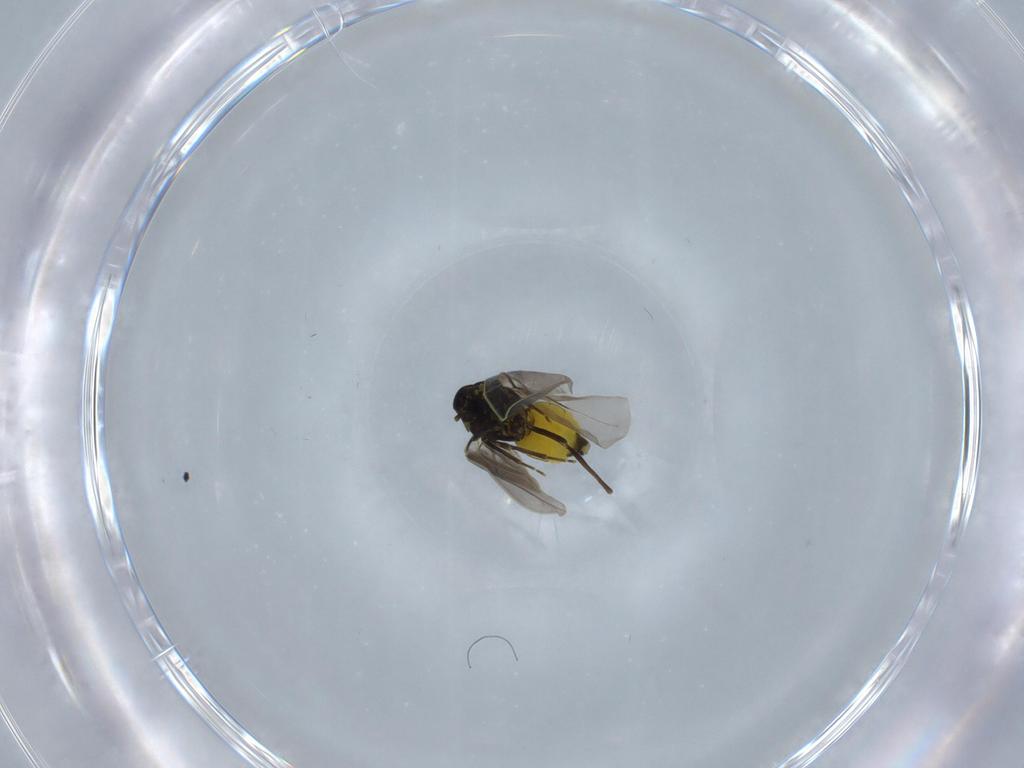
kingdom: Animalia
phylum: Arthropoda
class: Insecta
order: Hemiptera
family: Aleyrodidae
